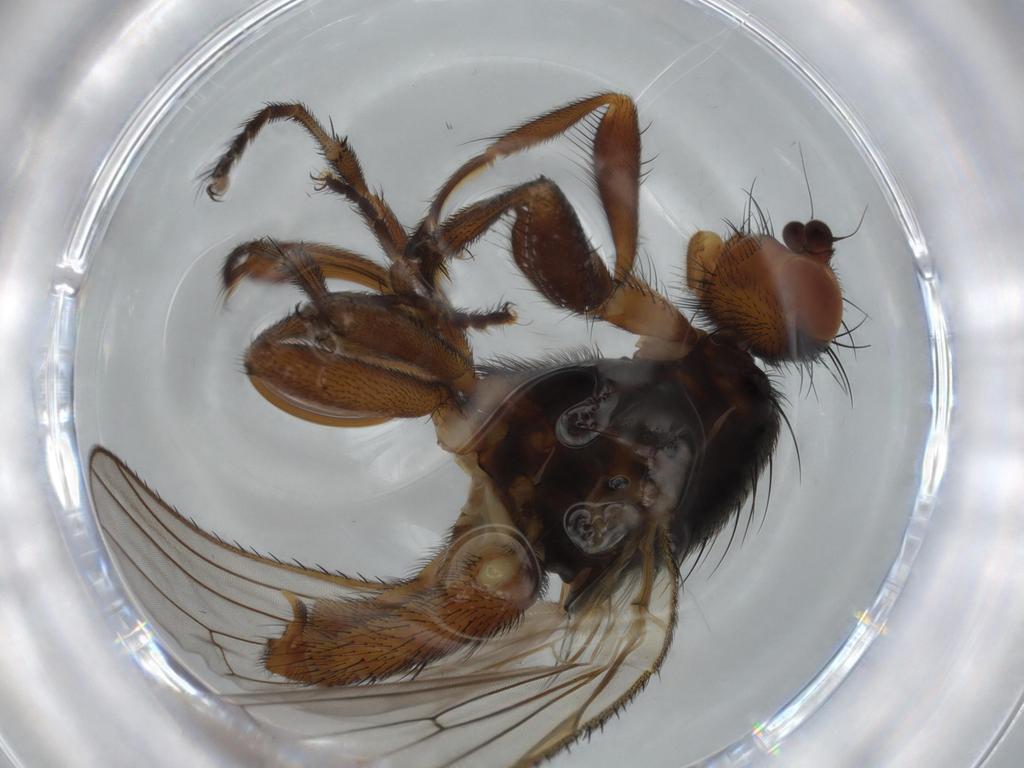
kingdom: Animalia
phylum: Arthropoda
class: Insecta
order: Diptera
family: Heleomyzidae
